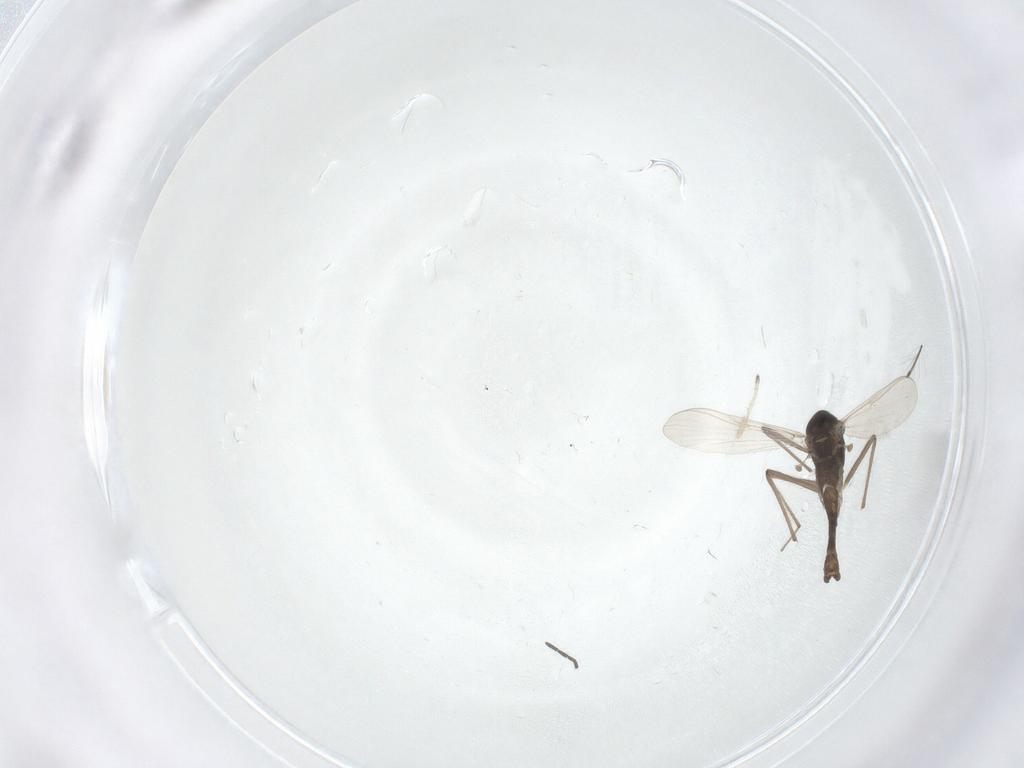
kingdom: Animalia
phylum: Arthropoda
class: Insecta
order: Diptera
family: Chironomidae
